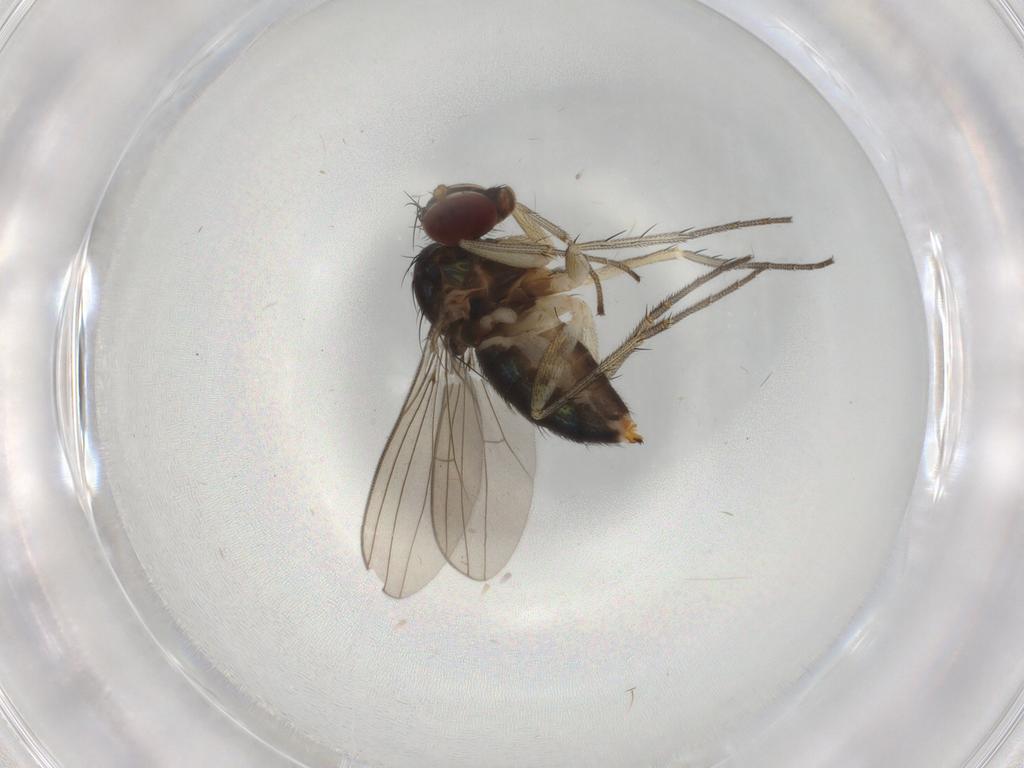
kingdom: Animalia
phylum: Arthropoda
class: Insecta
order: Diptera
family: Dolichopodidae
